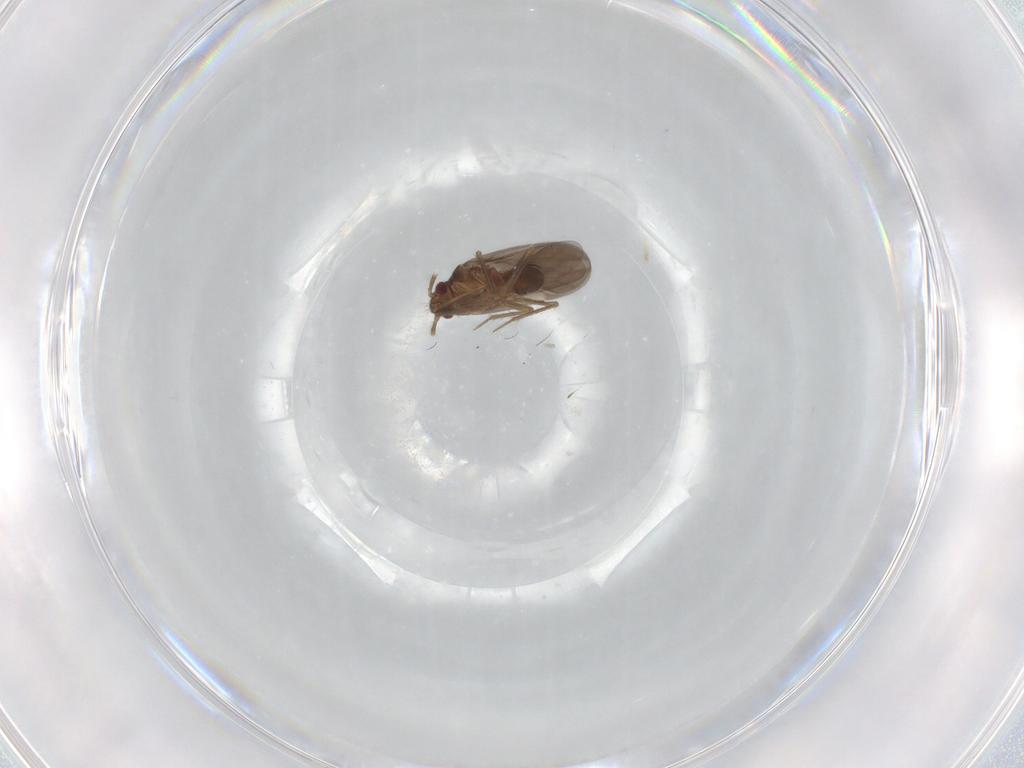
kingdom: Animalia
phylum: Arthropoda
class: Insecta
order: Hemiptera
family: Ceratocombidae
